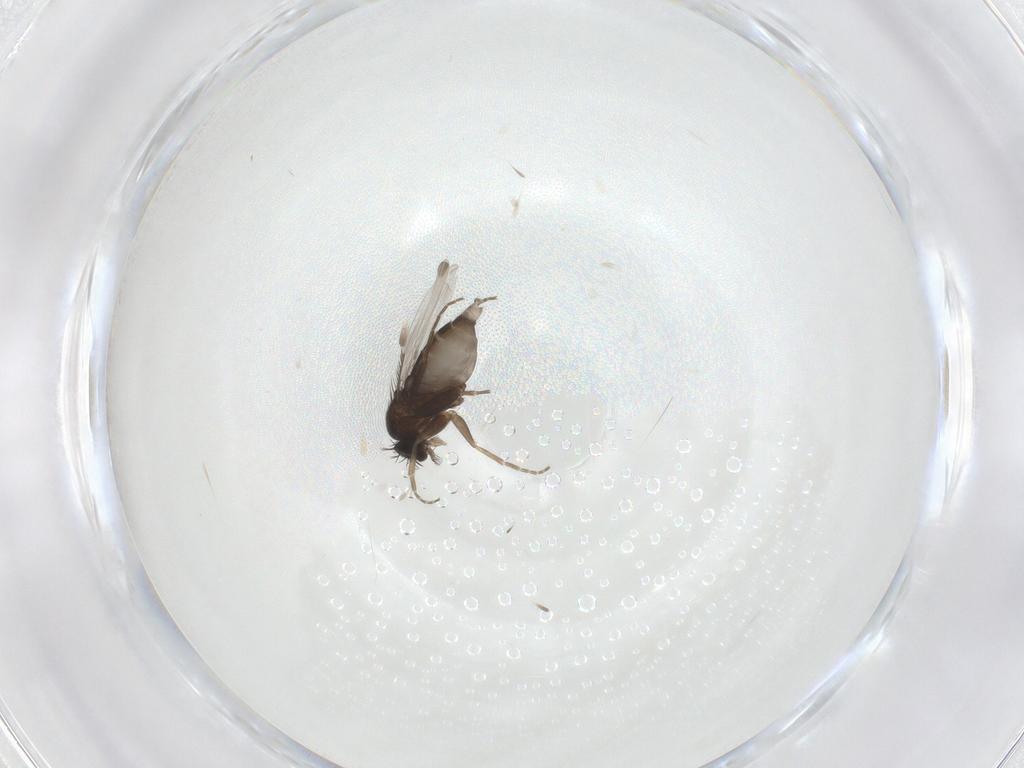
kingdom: Animalia
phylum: Arthropoda
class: Insecta
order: Diptera
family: Phoridae
